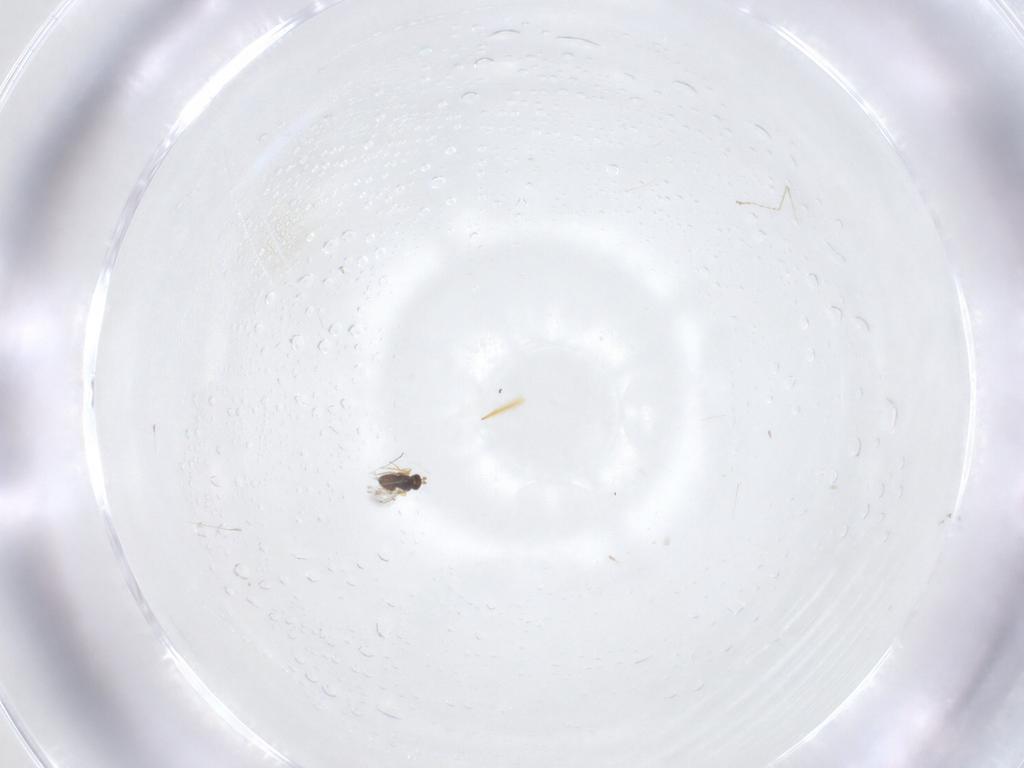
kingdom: Animalia
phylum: Arthropoda
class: Insecta
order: Diptera
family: Cecidomyiidae
